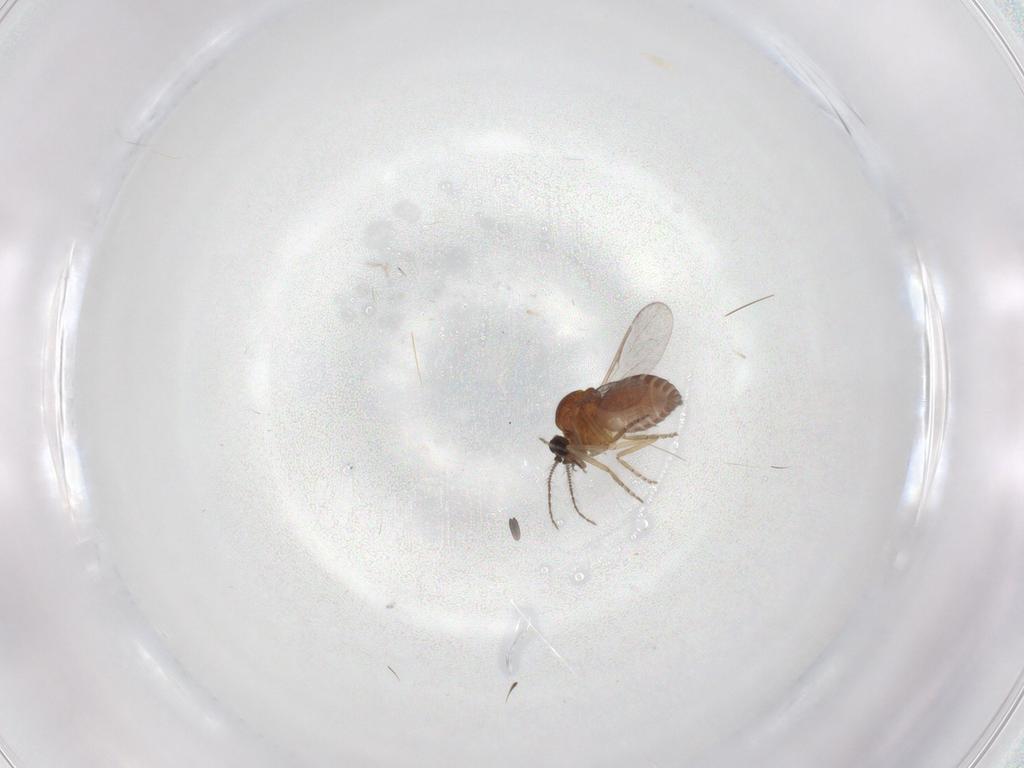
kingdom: Animalia
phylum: Arthropoda
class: Insecta
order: Diptera
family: Ceratopogonidae
